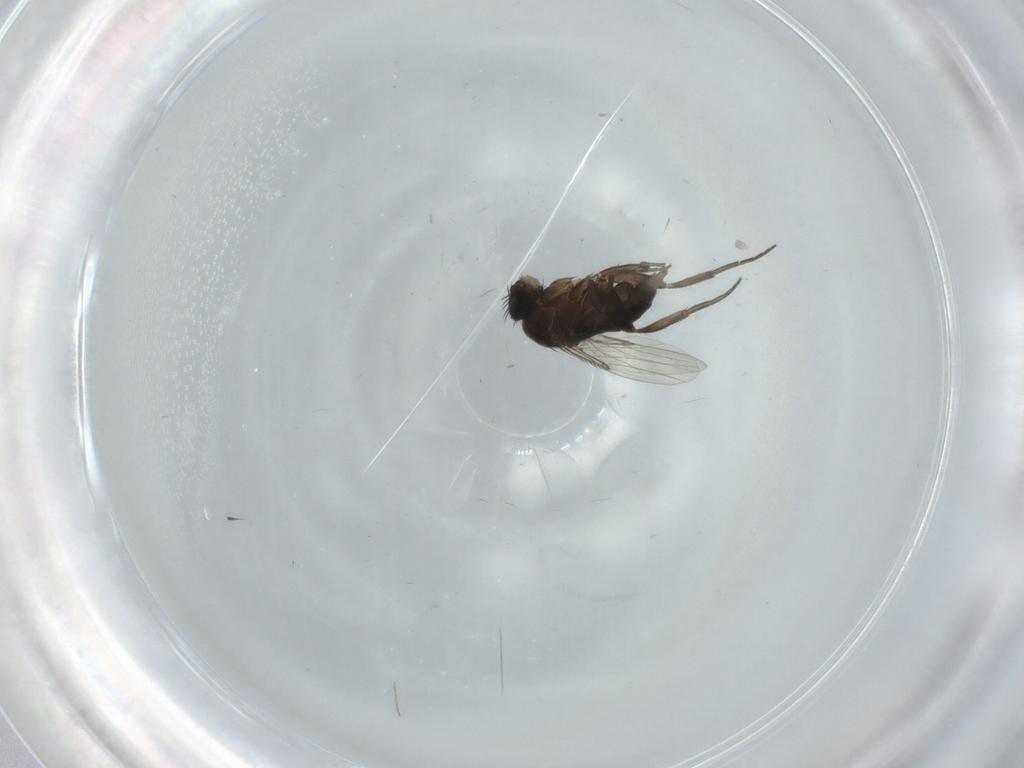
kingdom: Animalia
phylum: Arthropoda
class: Insecta
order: Diptera
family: Phoridae
